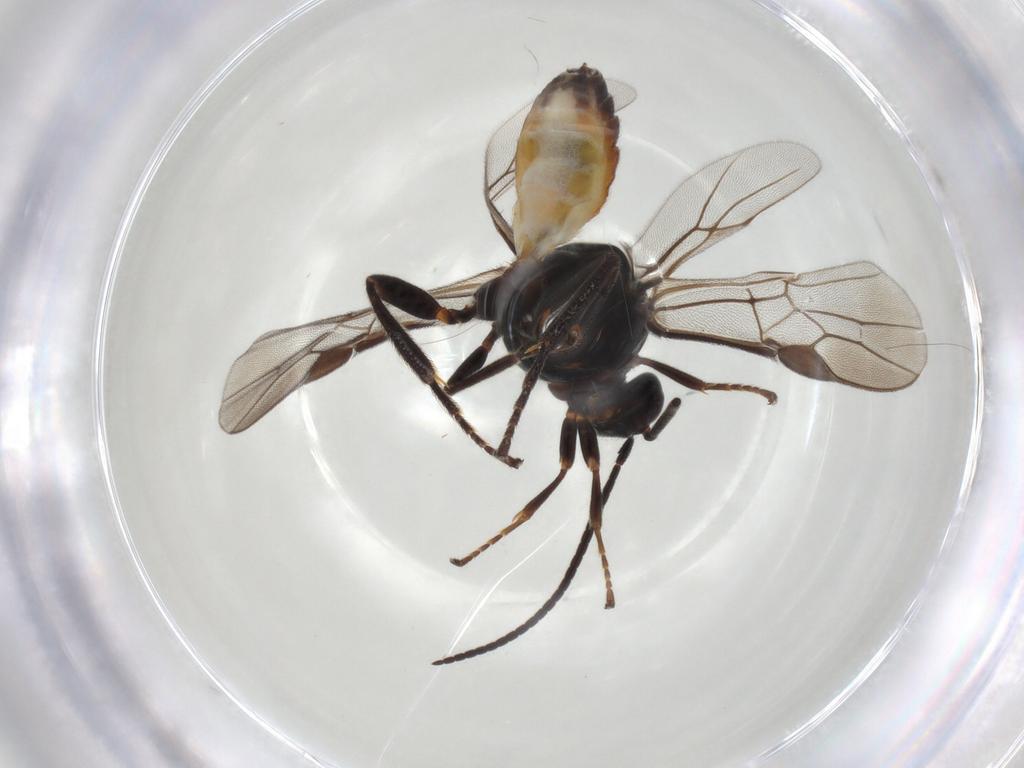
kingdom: Animalia
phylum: Arthropoda
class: Insecta
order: Hymenoptera
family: Braconidae
